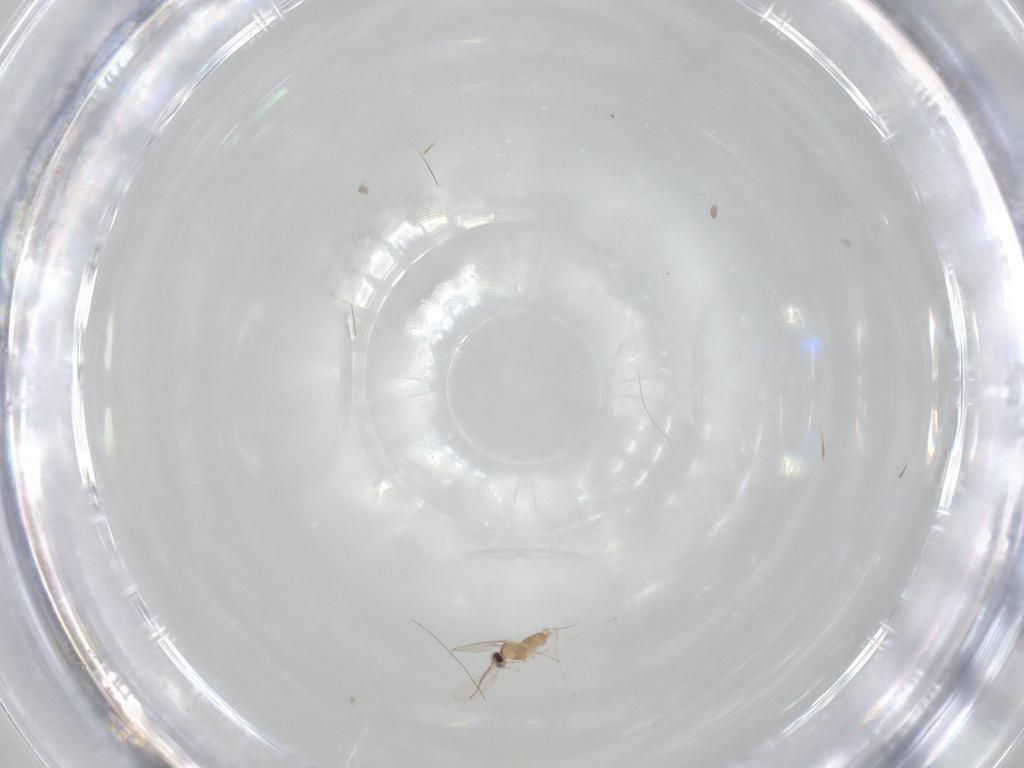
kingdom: Animalia
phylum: Arthropoda
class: Insecta
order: Diptera
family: Cecidomyiidae
